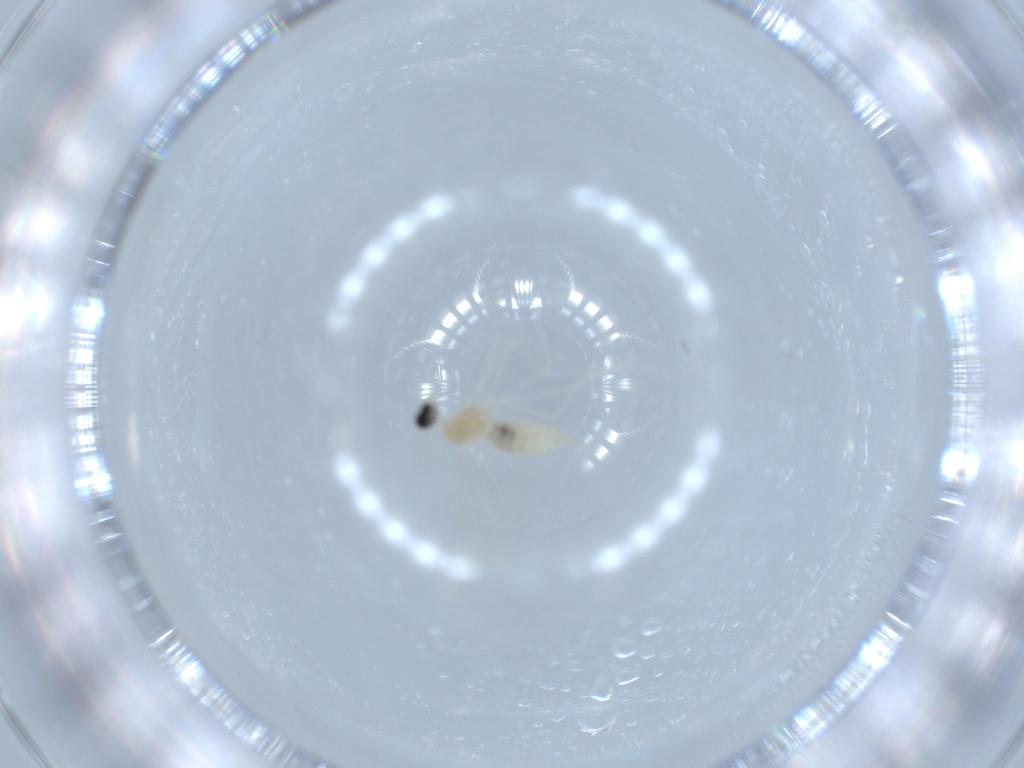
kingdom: Animalia
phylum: Arthropoda
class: Insecta
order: Diptera
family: Cecidomyiidae
